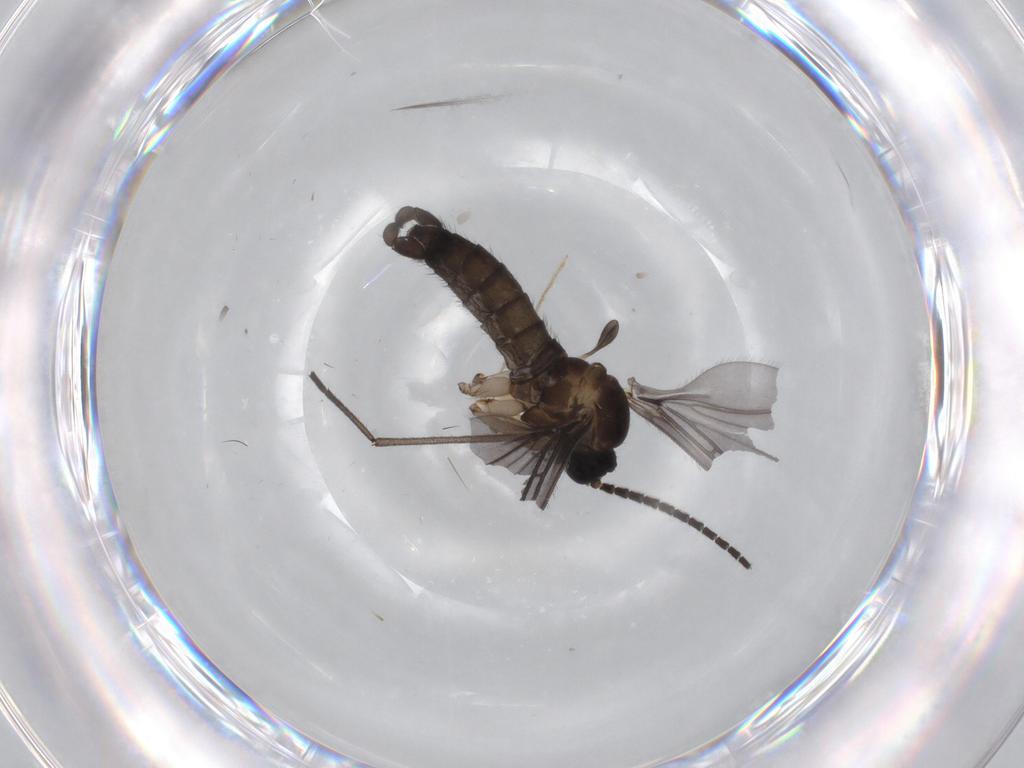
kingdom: Animalia
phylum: Arthropoda
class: Insecta
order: Diptera
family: Sciaridae
